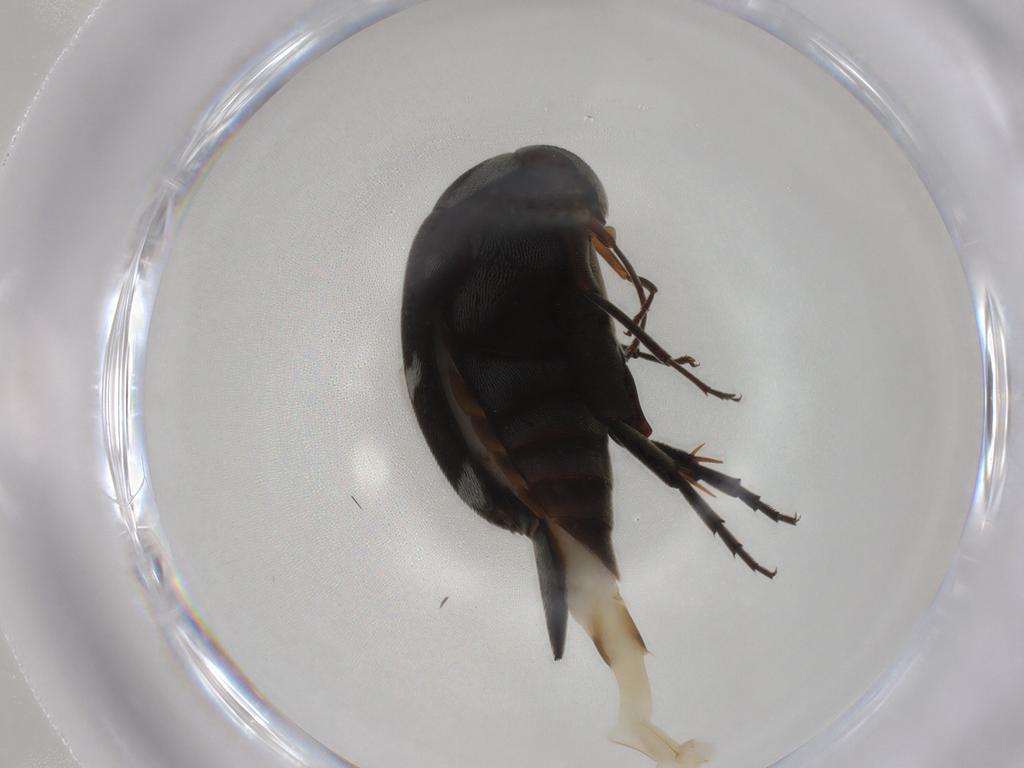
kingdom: Animalia
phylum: Arthropoda
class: Insecta
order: Coleoptera
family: Mordellidae
